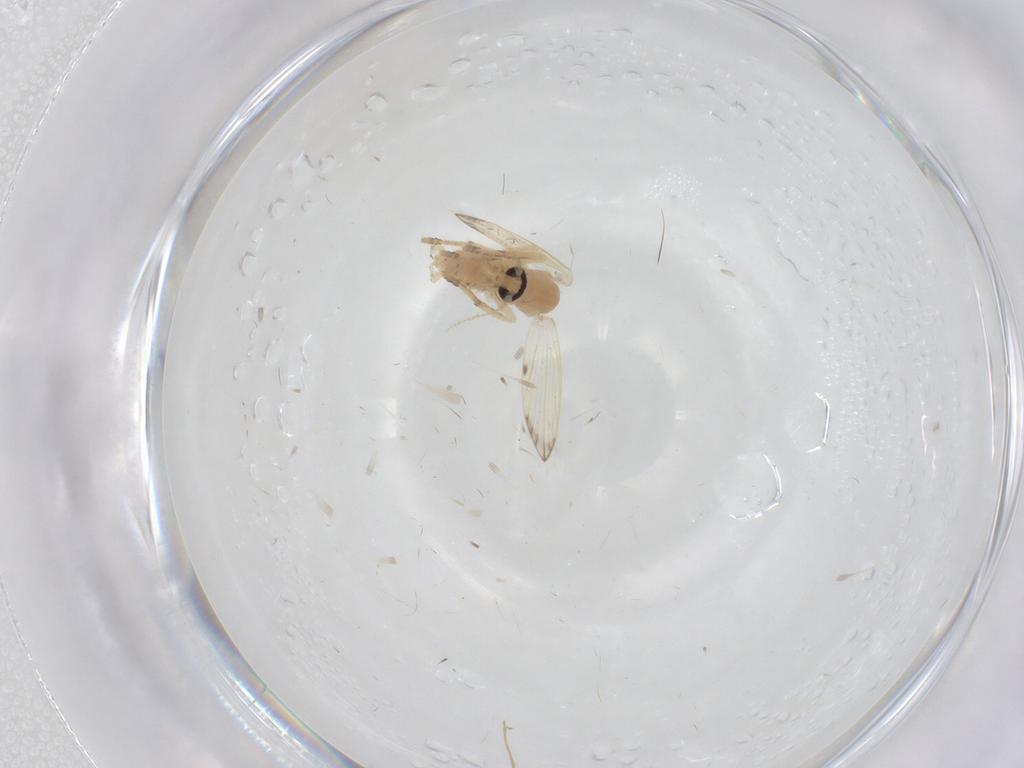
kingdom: Animalia
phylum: Arthropoda
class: Insecta
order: Diptera
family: Psychodidae
